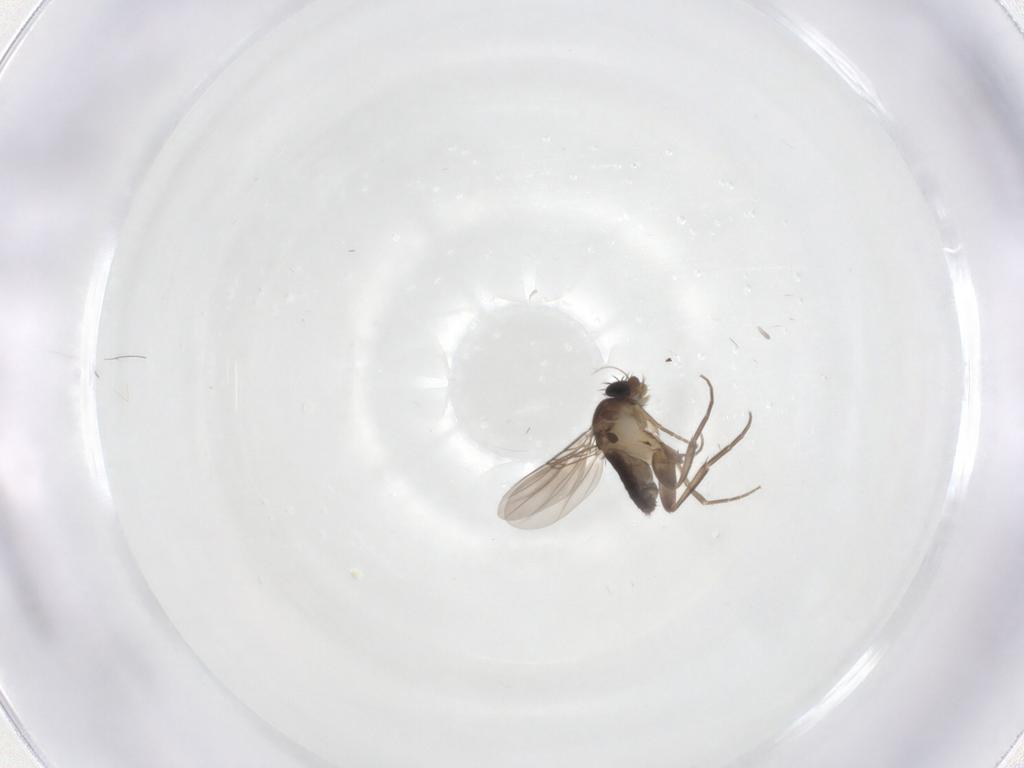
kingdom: Animalia
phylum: Arthropoda
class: Insecta
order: Diptera
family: Phoridae
